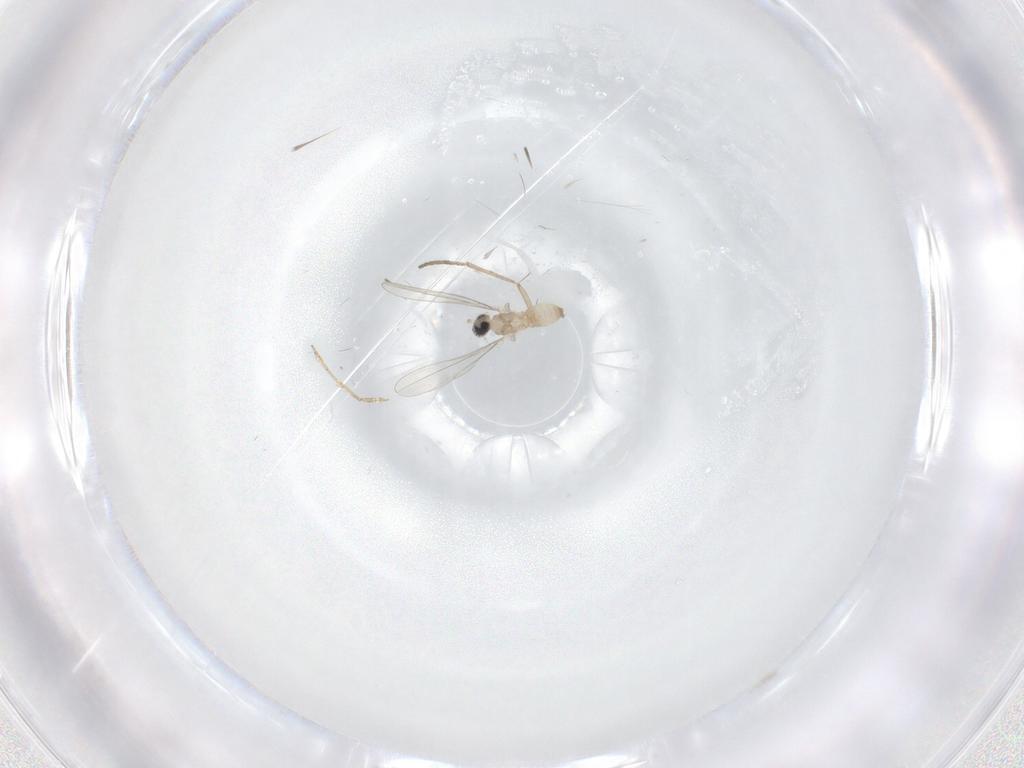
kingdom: Animalia
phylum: Arthropoda
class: Insecta
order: Diptera
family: Cecidomyiidae
